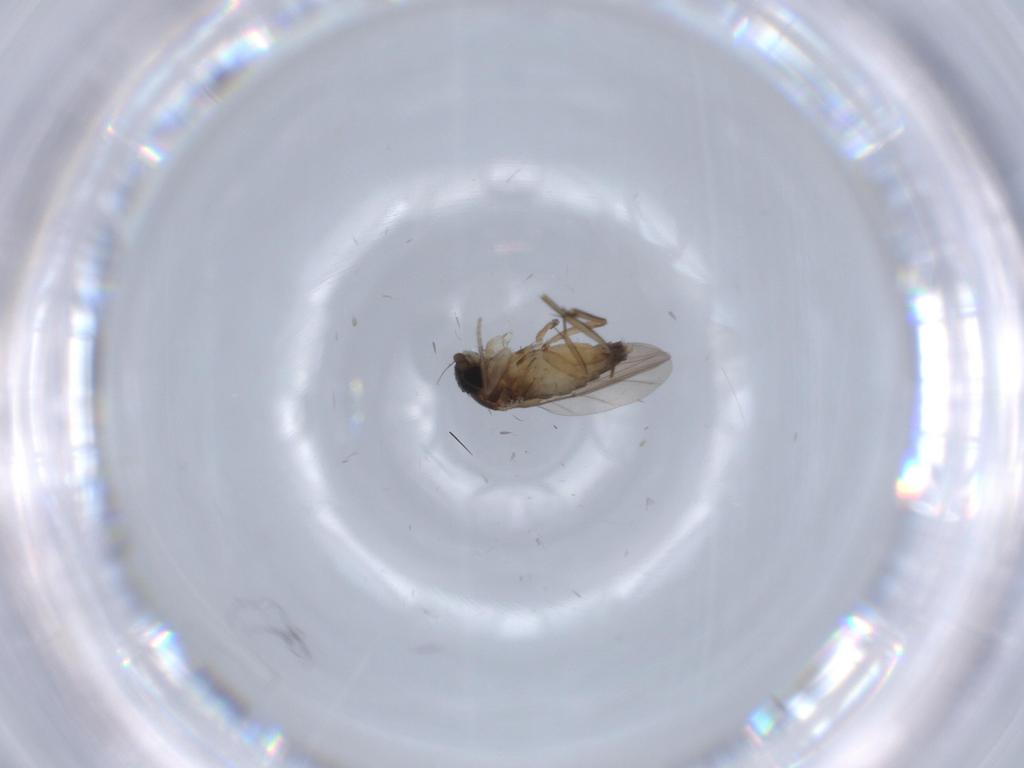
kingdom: Animalia
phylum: Arthropoda
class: Insecta
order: Diptera
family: Phoridae
